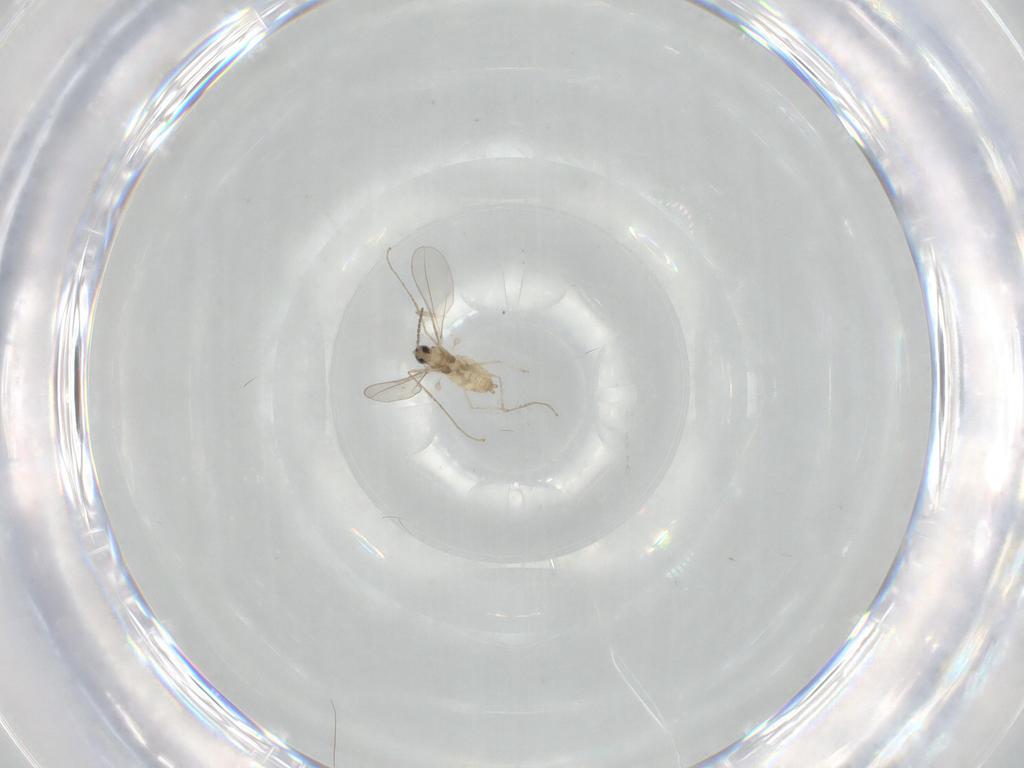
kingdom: Animalia
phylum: Arthropoda
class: Insecta
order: Diptera
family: Cecidomyiidae
